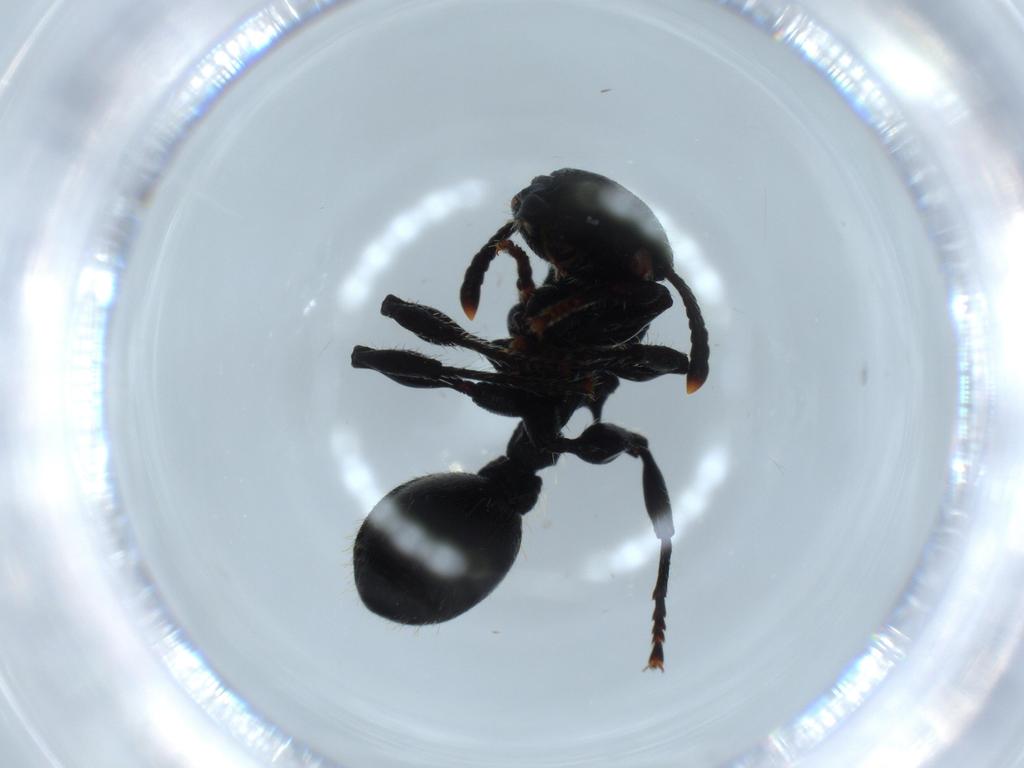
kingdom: Animalia
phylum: Arthropoda
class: Insecta
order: Hymenoptera
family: Formicidae
